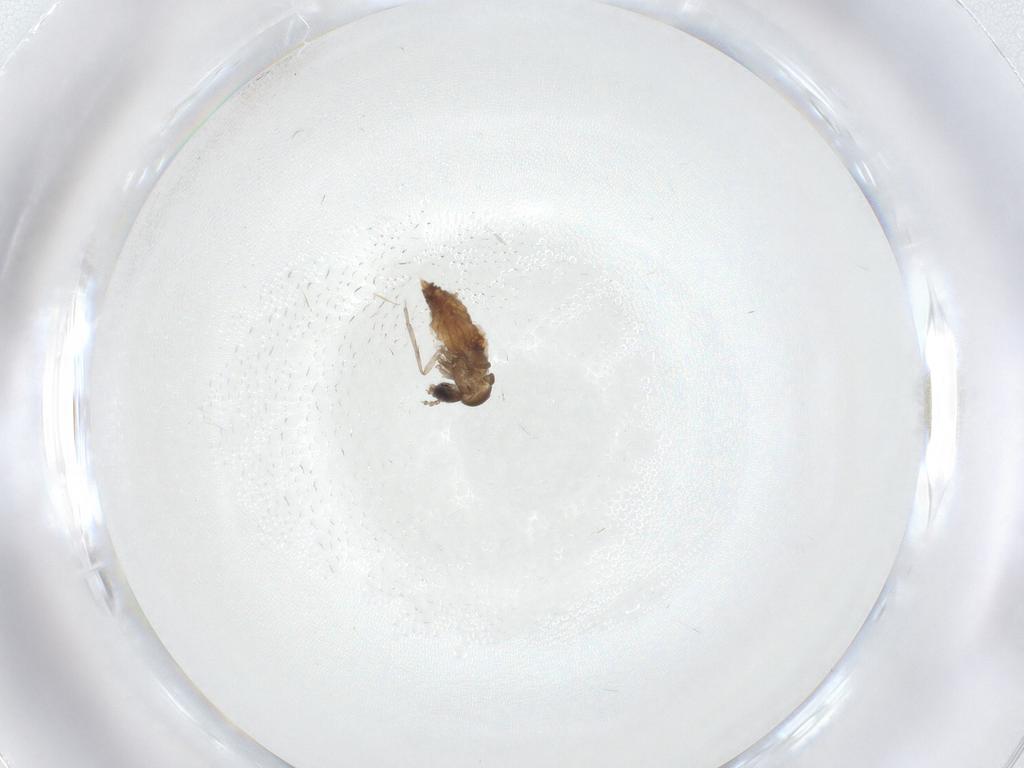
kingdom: Animalia
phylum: Arthropoda
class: Insecta
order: Diptera
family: Psychodidae
